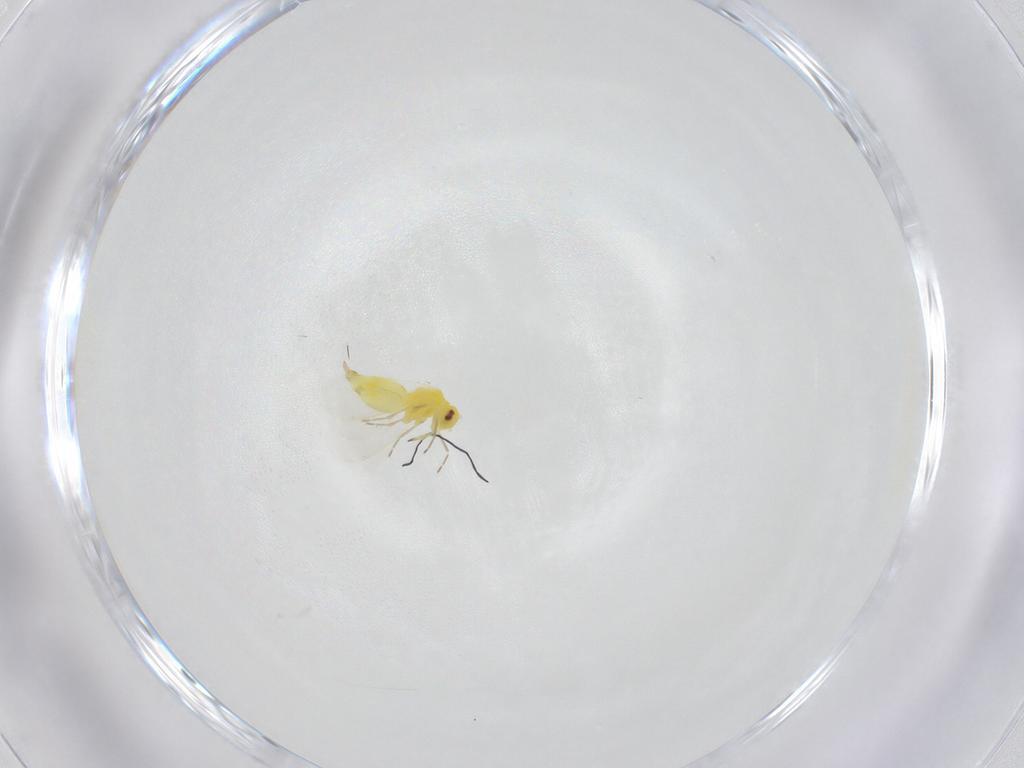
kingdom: Animalia
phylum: Arthropoda
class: Insecta
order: Hemiptera
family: Aleyrodidae
